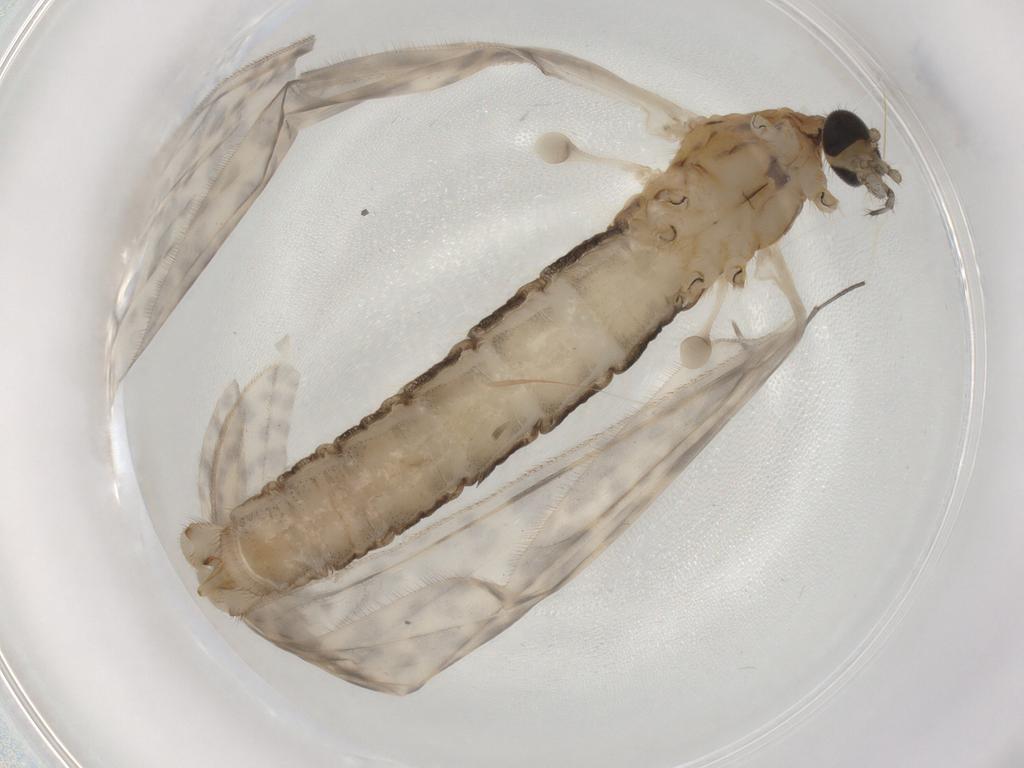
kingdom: Animalia
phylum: Arthropoda
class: Insecta
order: Diptera
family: Limoniidae
